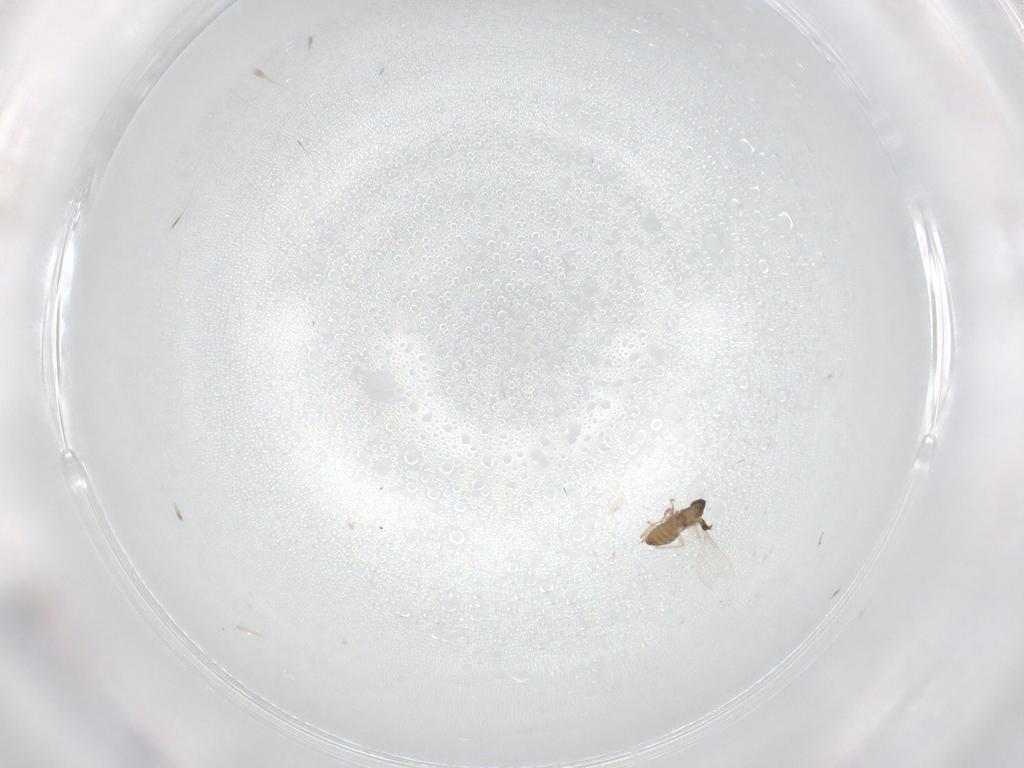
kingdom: Animalia
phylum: Arthropoda
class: Insecta
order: Diptera
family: Cecidomyiidae
